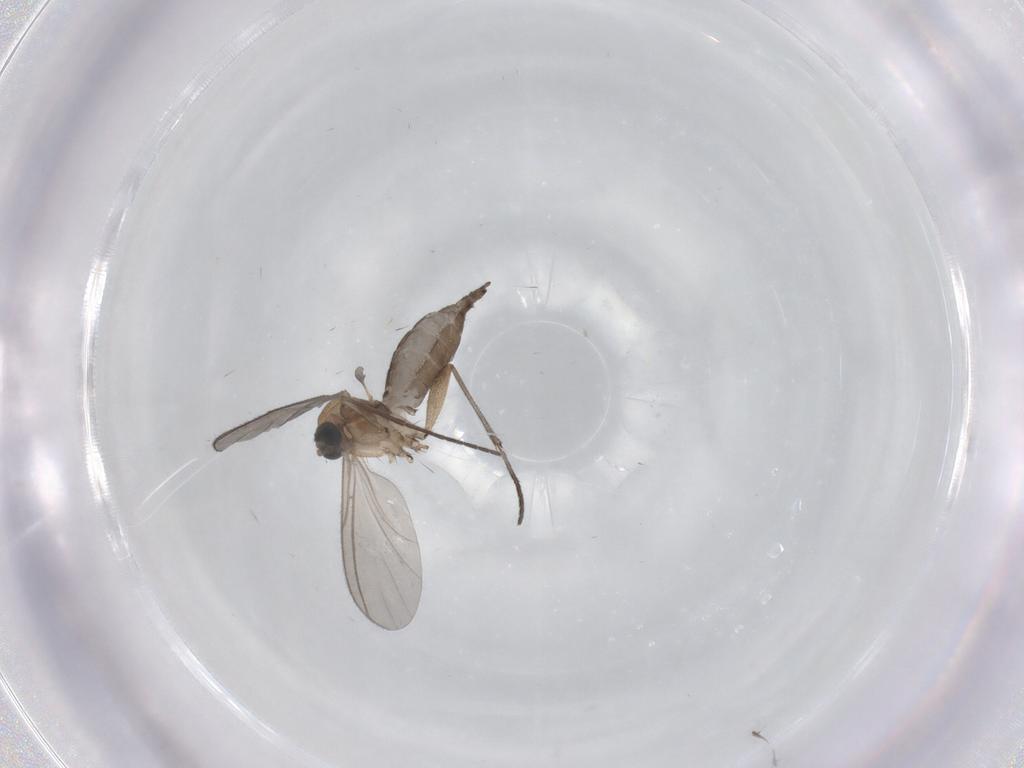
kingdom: Animalia
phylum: Arthropoda
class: Insecta
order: Diptera
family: Phoridae
